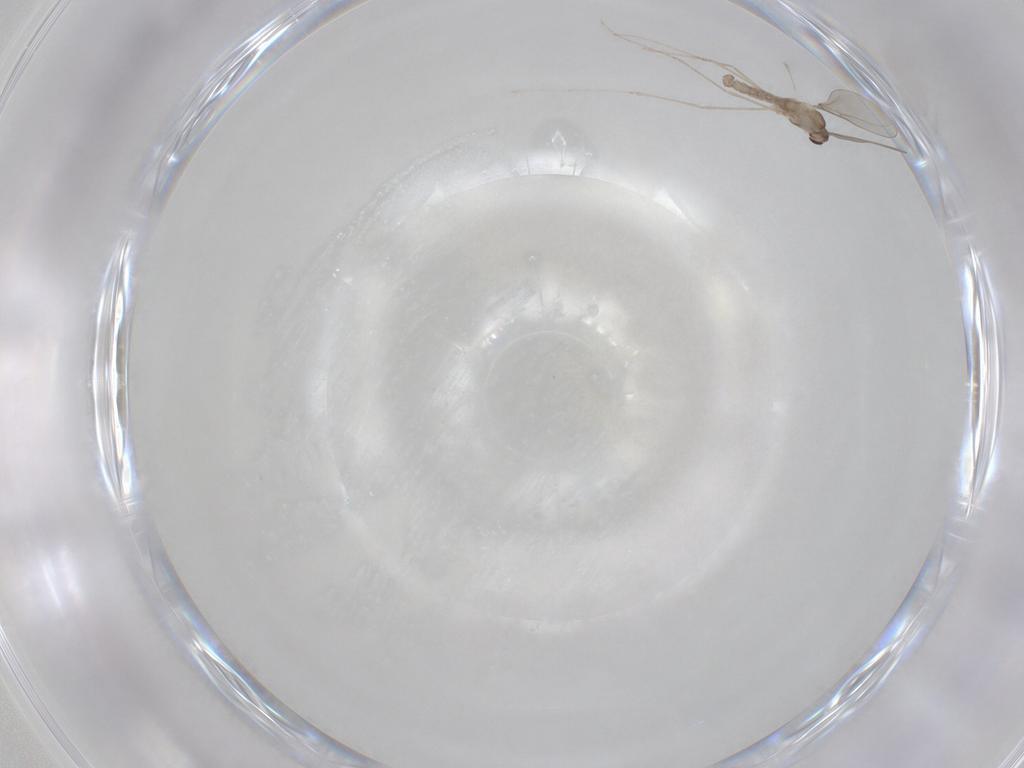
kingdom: Animalia
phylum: Arthropoda
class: Insecta
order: Diptera
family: Cecidomyiidae
